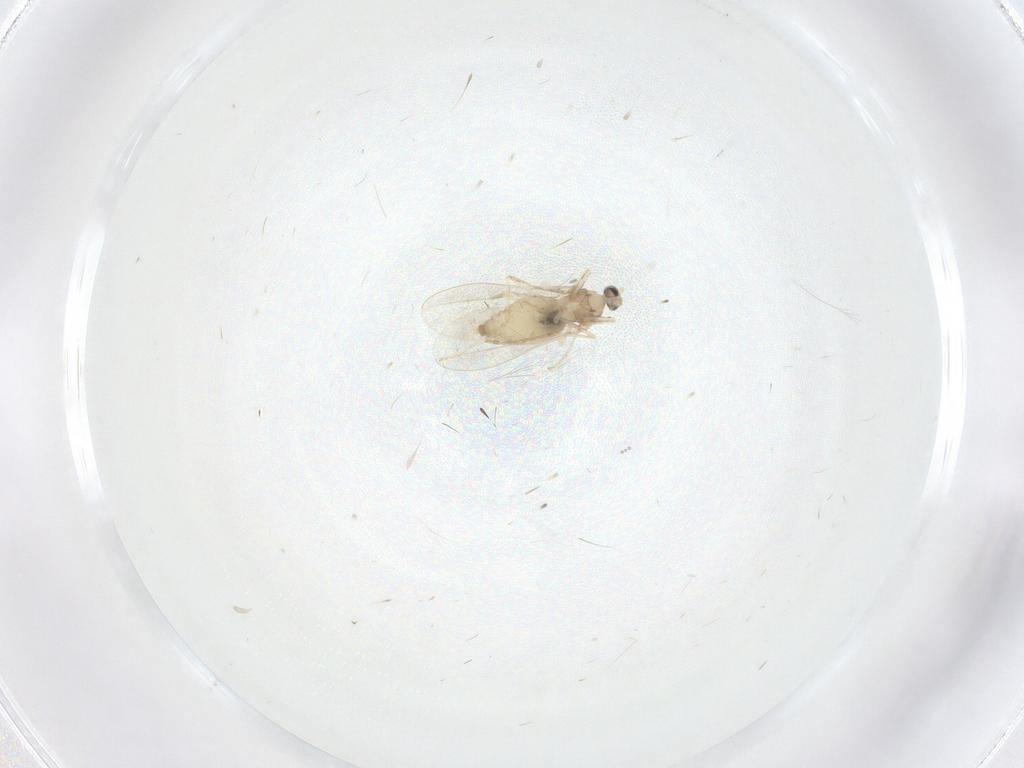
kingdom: Animalia
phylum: Arthropoda
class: Insecta
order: Diptera
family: Cecidomyiidae
